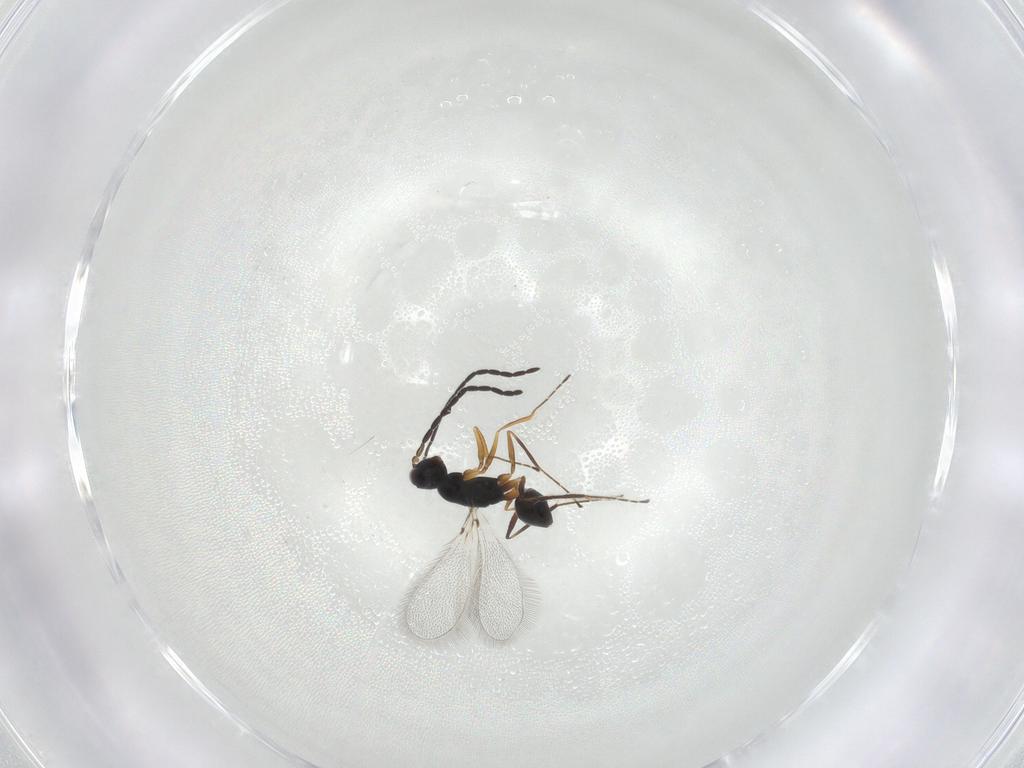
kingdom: Animalia
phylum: Arthropoda
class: Insecta
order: Hymenoptera
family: Mymaridae
